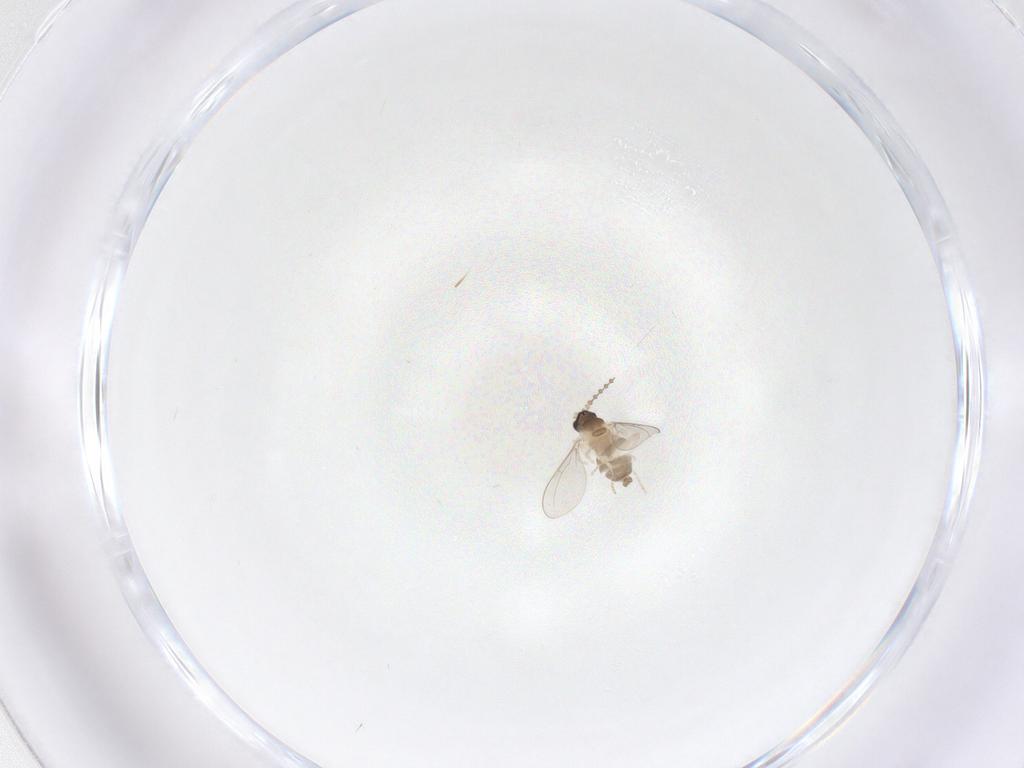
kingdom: Animalia
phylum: Arthropoda
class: Insecta
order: Diptera
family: Cecidomyiidae
